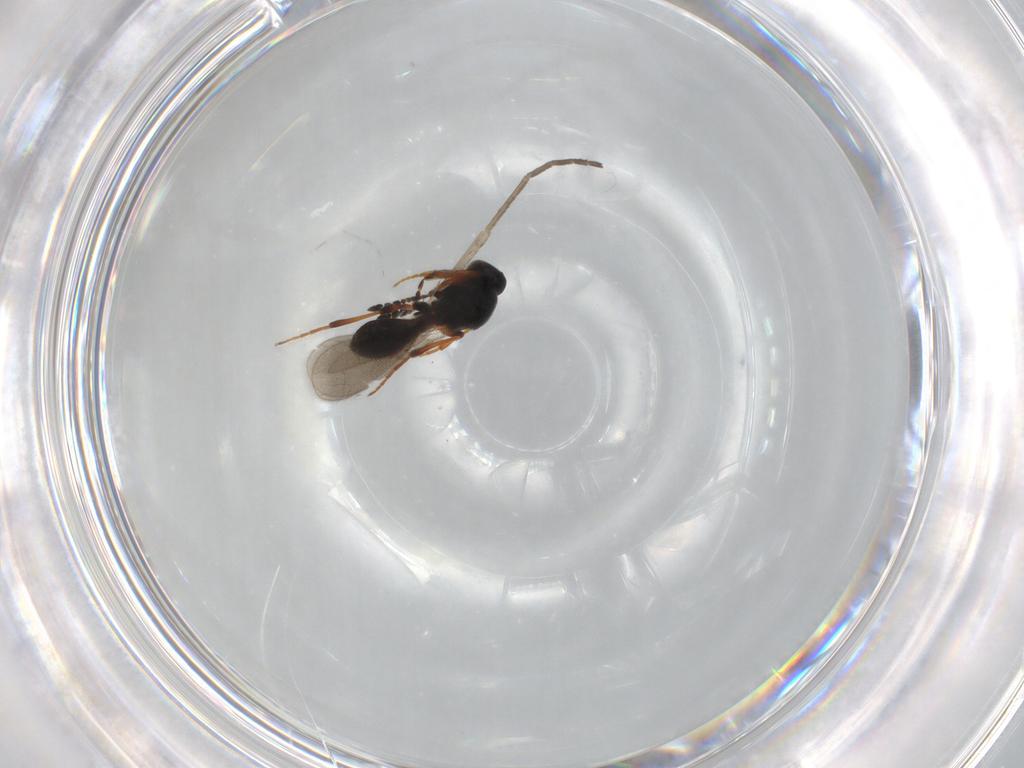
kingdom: Animalia
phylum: Arthropoda
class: Insecta
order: Hymenoptera
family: Platygastridae
